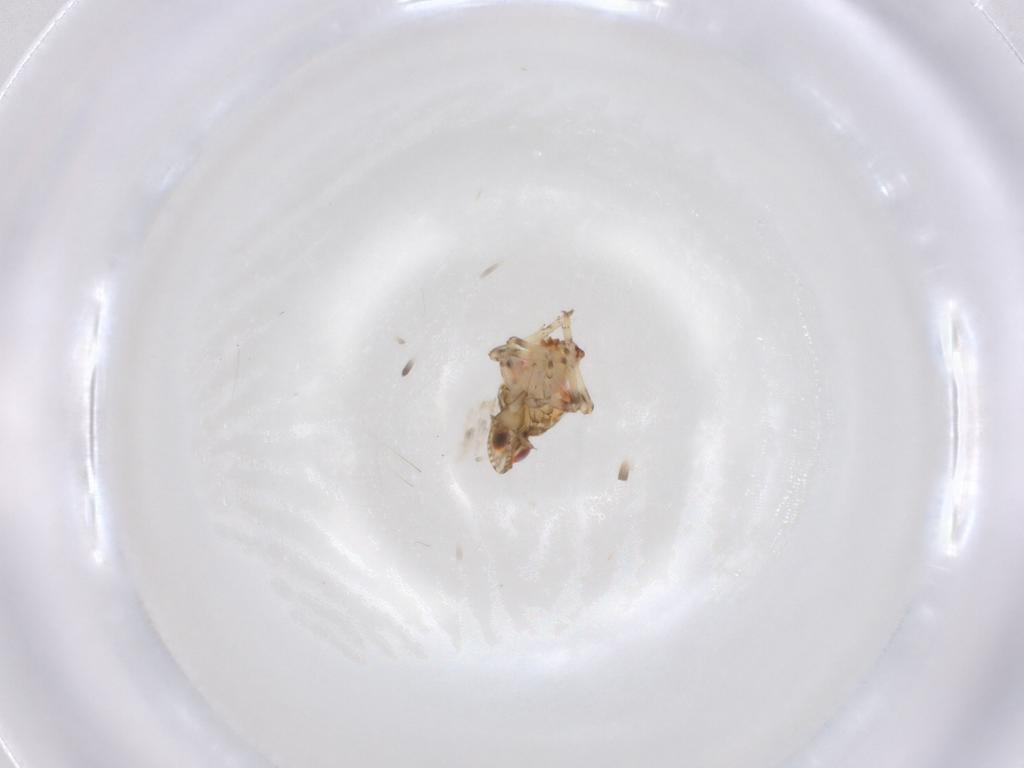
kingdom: Animalia
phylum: Arthropoda
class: Insecta
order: Hemiptera
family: Tropiduchidae
